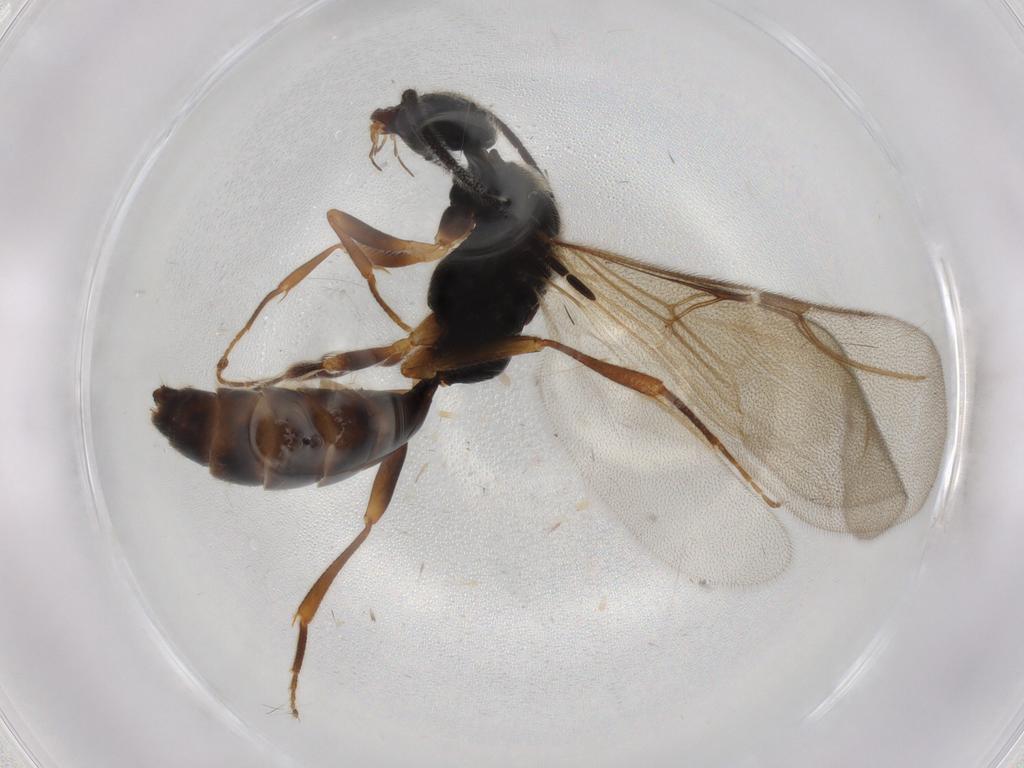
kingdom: Animalia
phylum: Arthropoda
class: Insecta
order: Hymenoptera
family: Bethylidae
